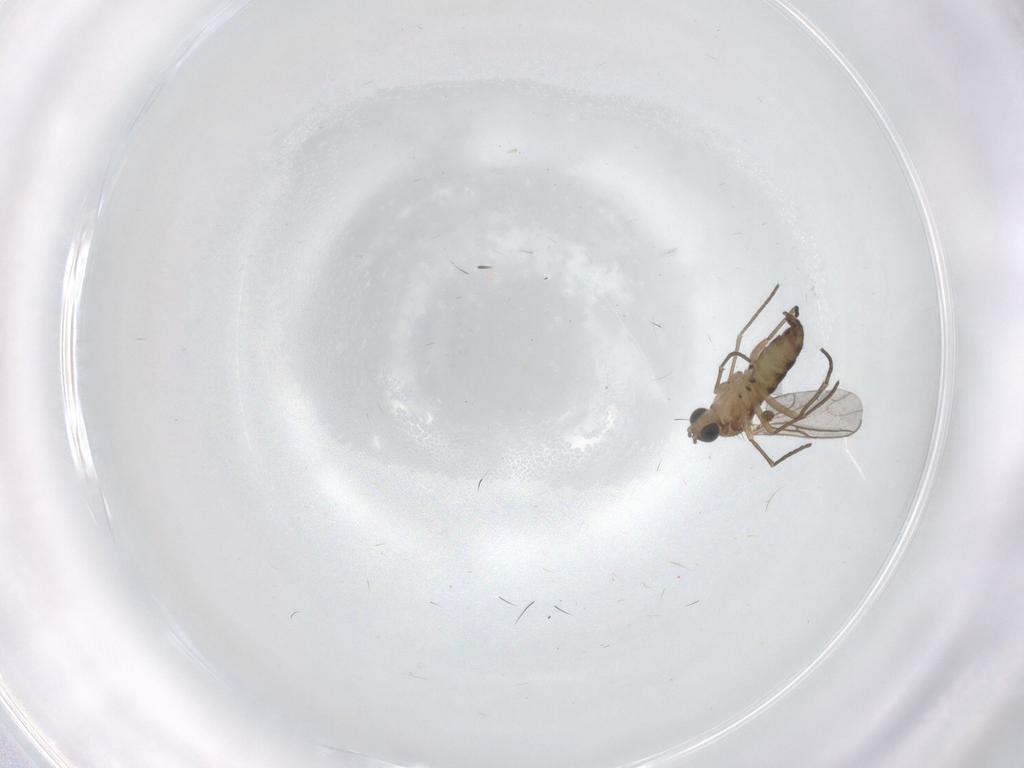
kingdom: Animalia
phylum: Arthropoda
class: Insecta
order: Diptera
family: Sciaridae
